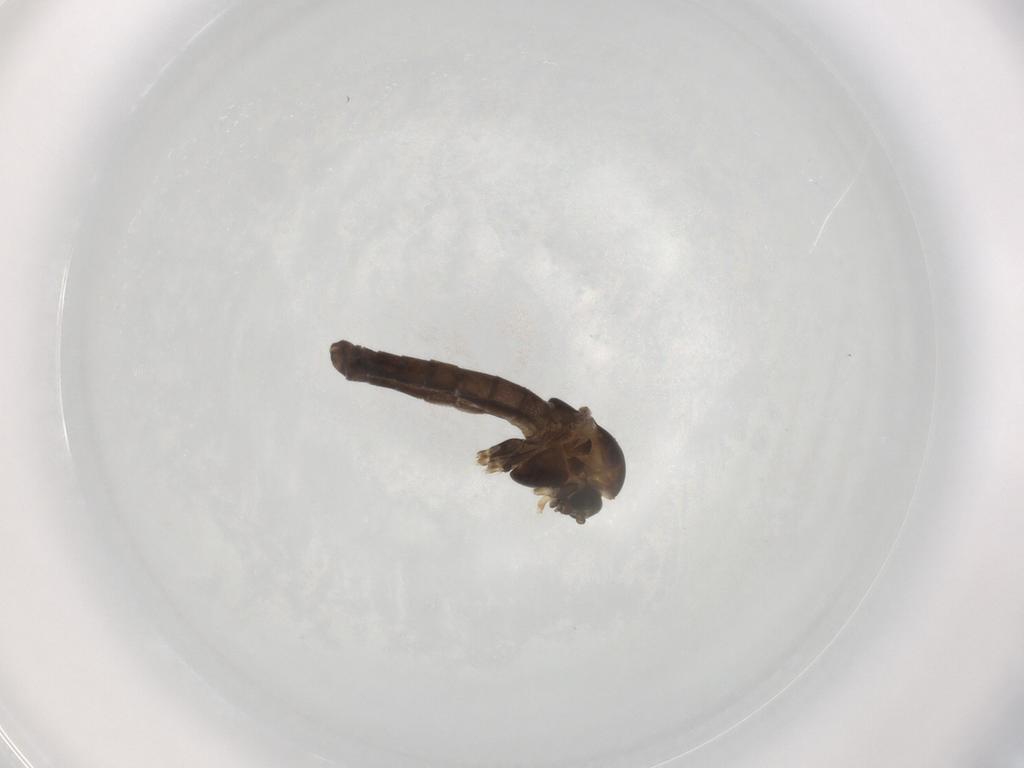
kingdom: Animalia
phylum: Arthropoda
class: Insecta
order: Diptera
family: Chironomidae
